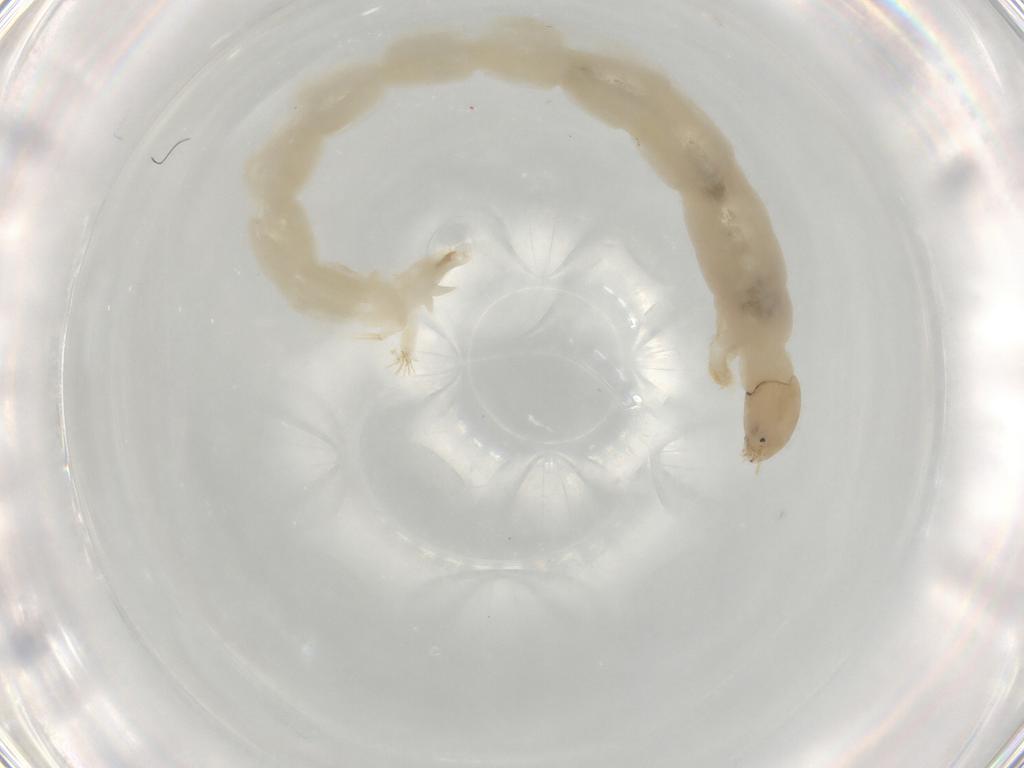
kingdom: Animalia
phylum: Arthropoda
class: Insecta
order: Diptera
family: Chironomidae
